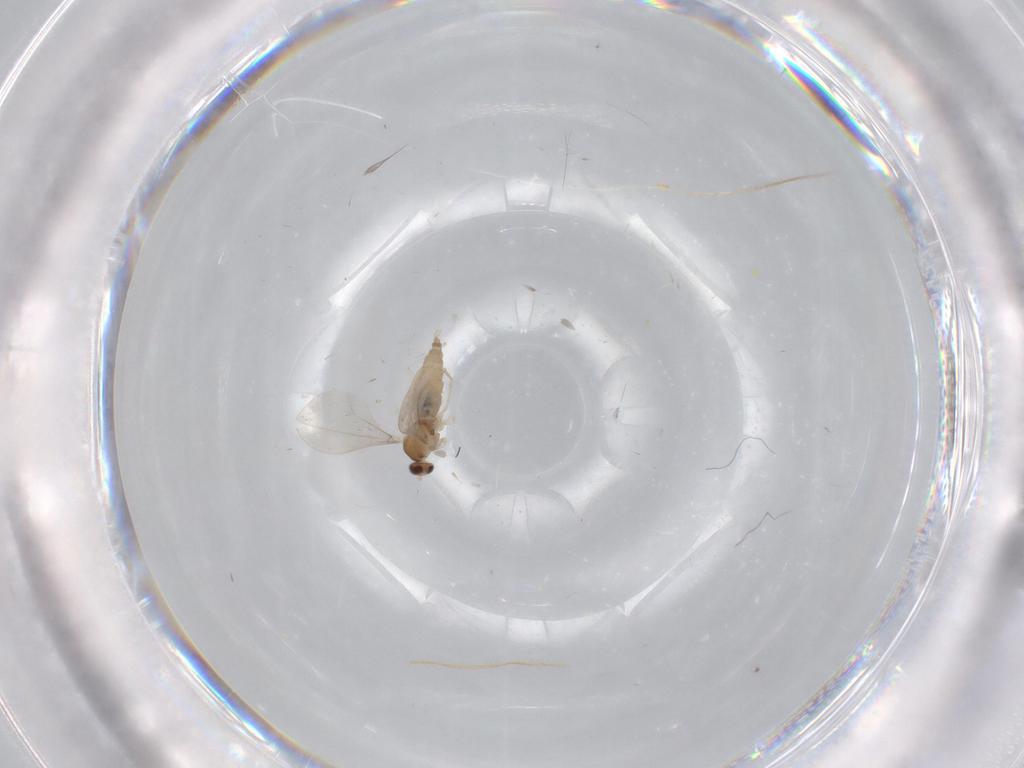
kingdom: Animalia
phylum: Arthropoda
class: Insecta
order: Diptera
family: Cecidomyiidae
